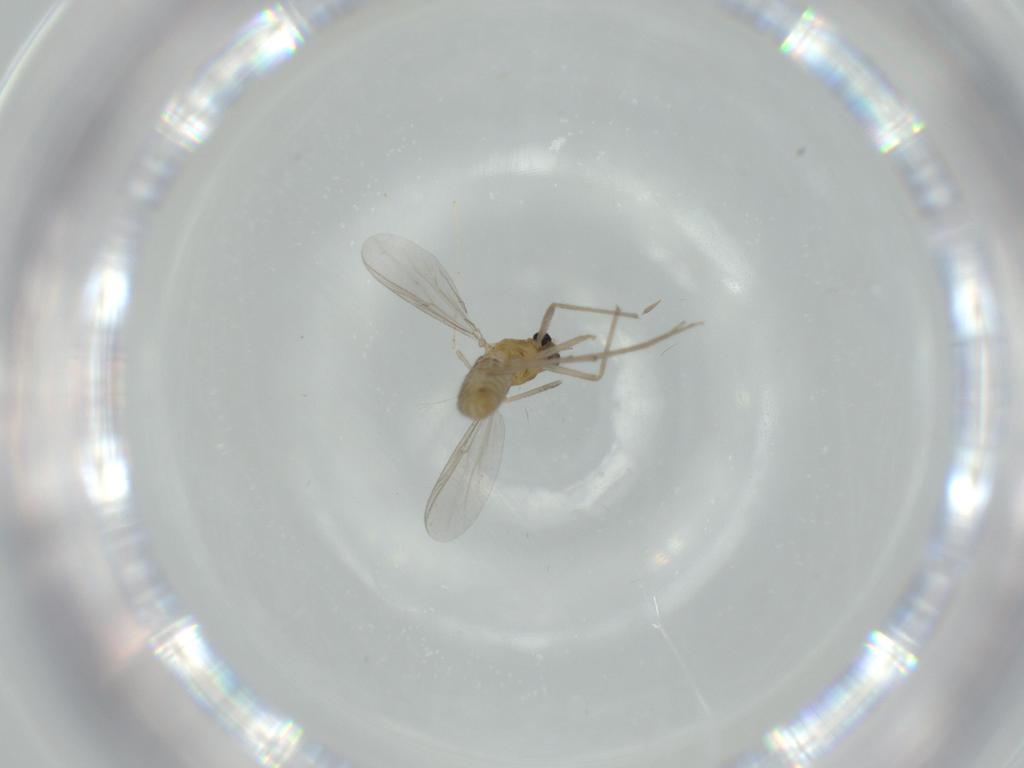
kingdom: Animalia
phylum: Arthropoda
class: Insecta
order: Diptera
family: Chironomidae
